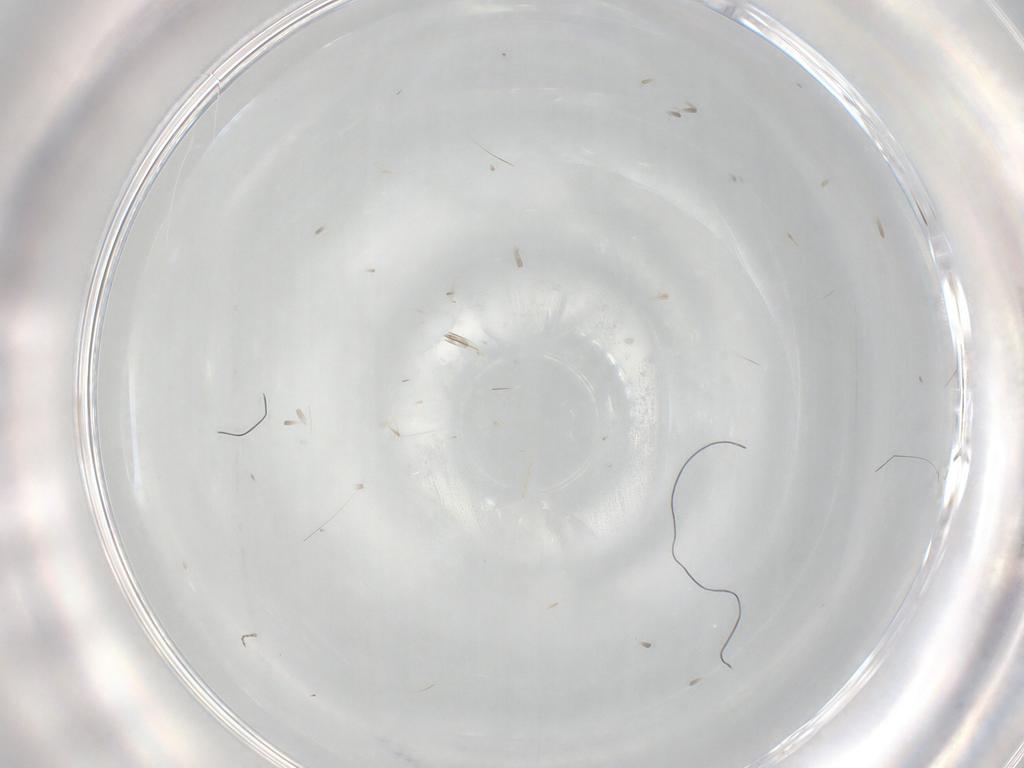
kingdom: Animalia
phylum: Arthropoda
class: Insecta
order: Diptera
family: Cecidomyiidae
